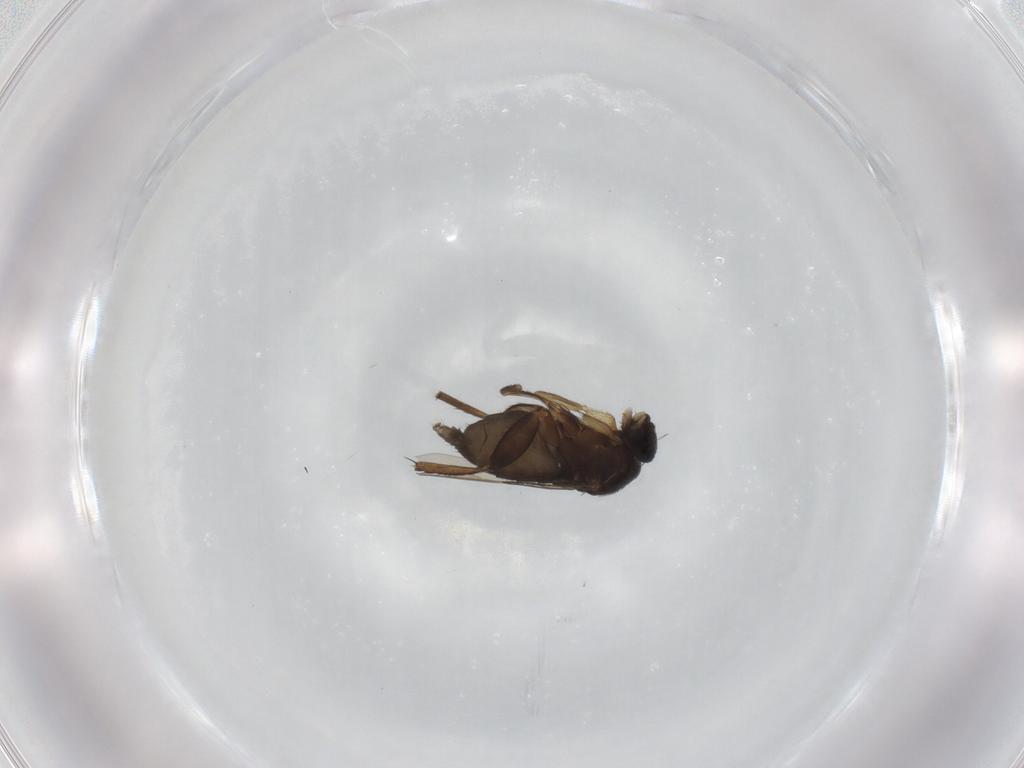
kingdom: Animalia
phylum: Arthropoda
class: Insecta
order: Diptera
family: Phoridae
